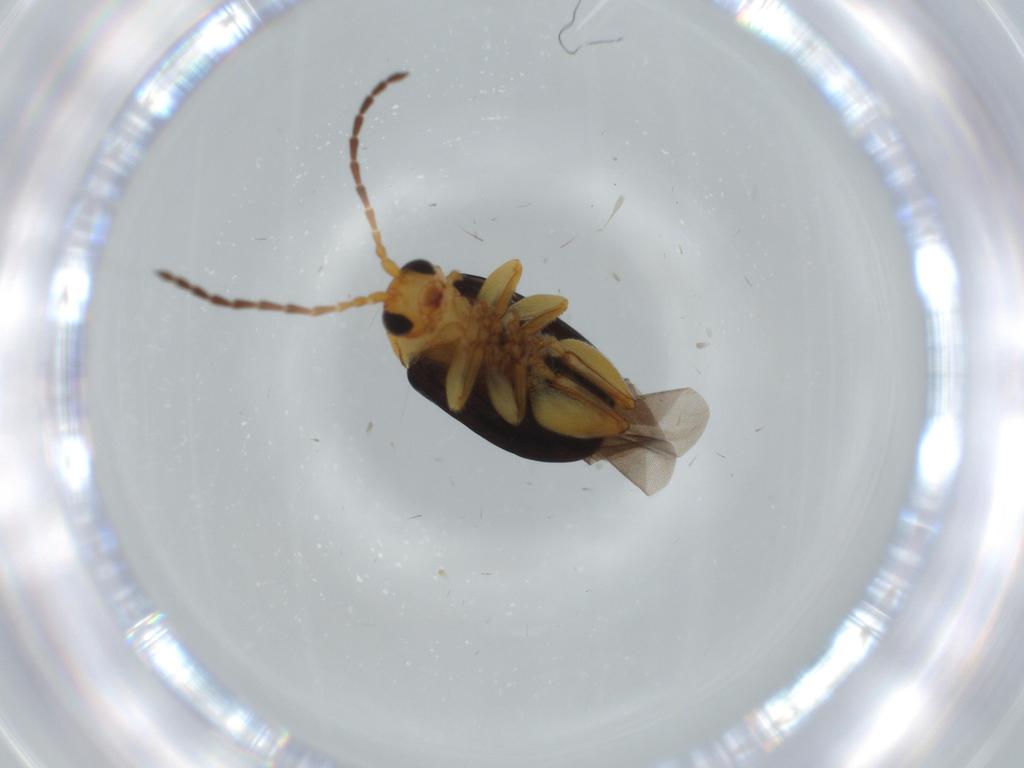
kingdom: Animalia
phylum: Arthropoda
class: Insecta
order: Coleoptera
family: Chrysomelidae
